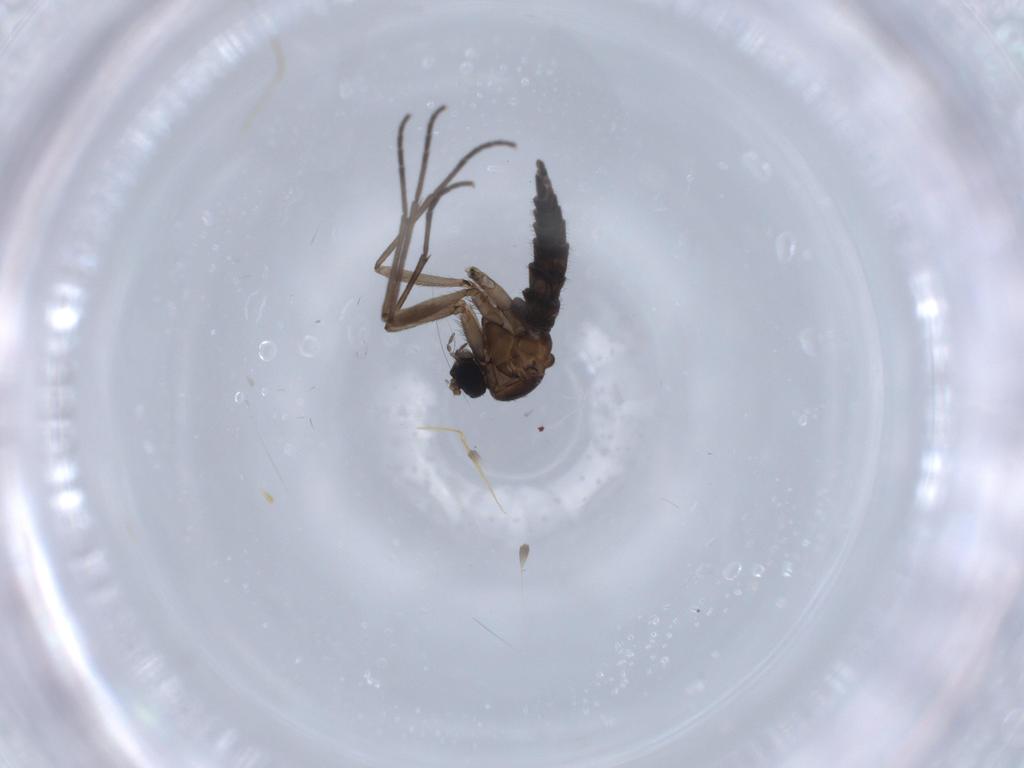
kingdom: Animalia
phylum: Arthropoda
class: Insecta
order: Diptera
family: Sciaridae
